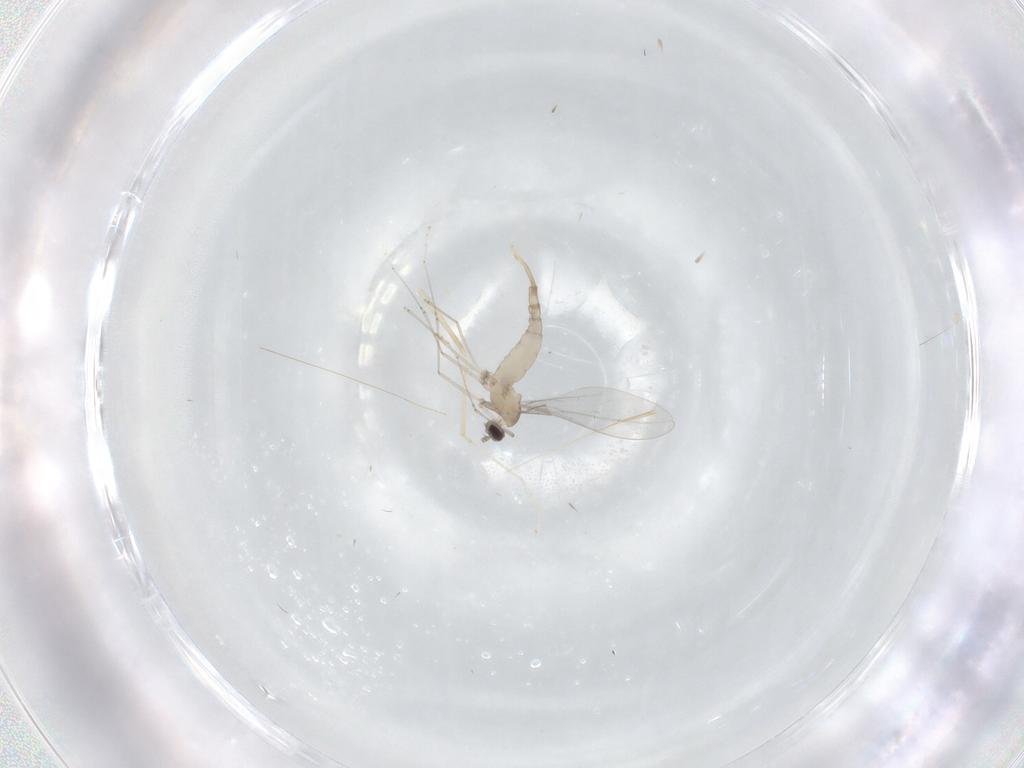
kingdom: Animalia
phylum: Arthropoda
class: Insecta
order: Diptera
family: Cecidomyiidae
